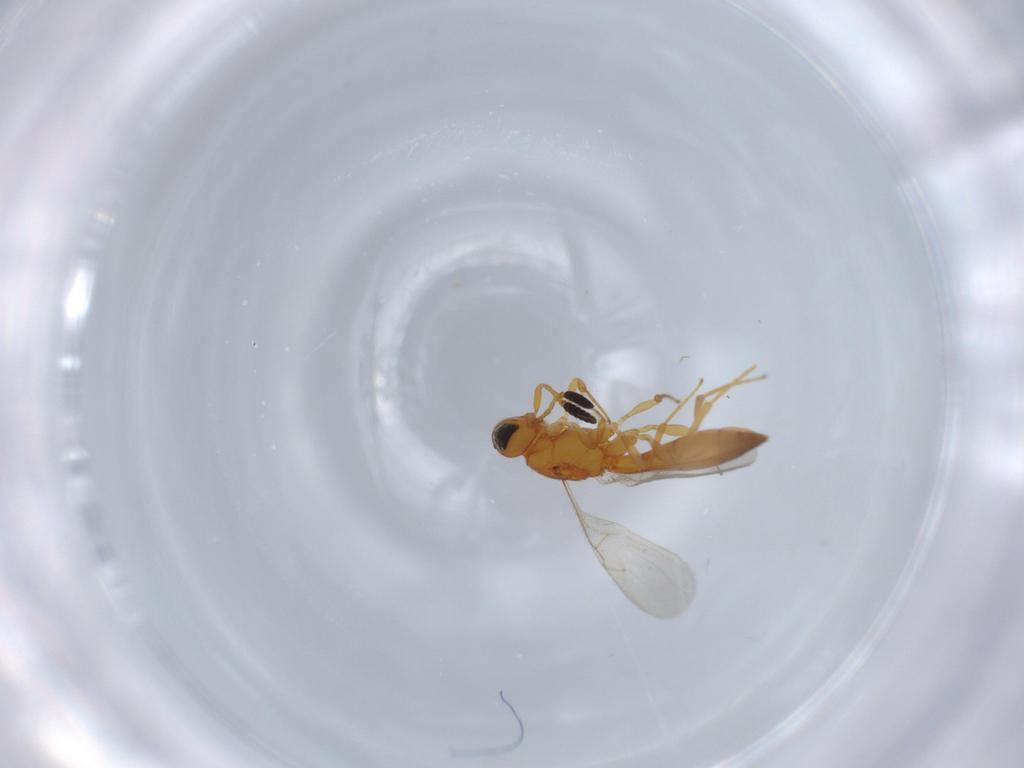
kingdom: Animalia
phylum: Arthropoda
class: Insecta
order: Hymenoptera
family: Scelionidae
